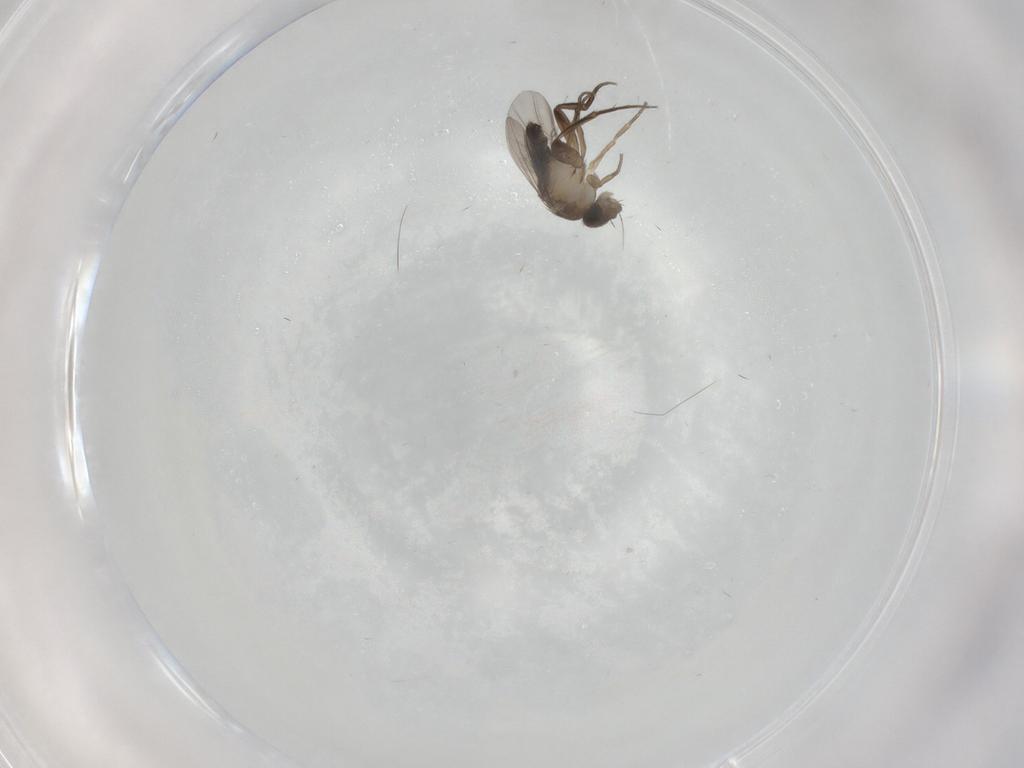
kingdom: Animalia
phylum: Arthropoda
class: Insecta
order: Diptera
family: Phoridae
